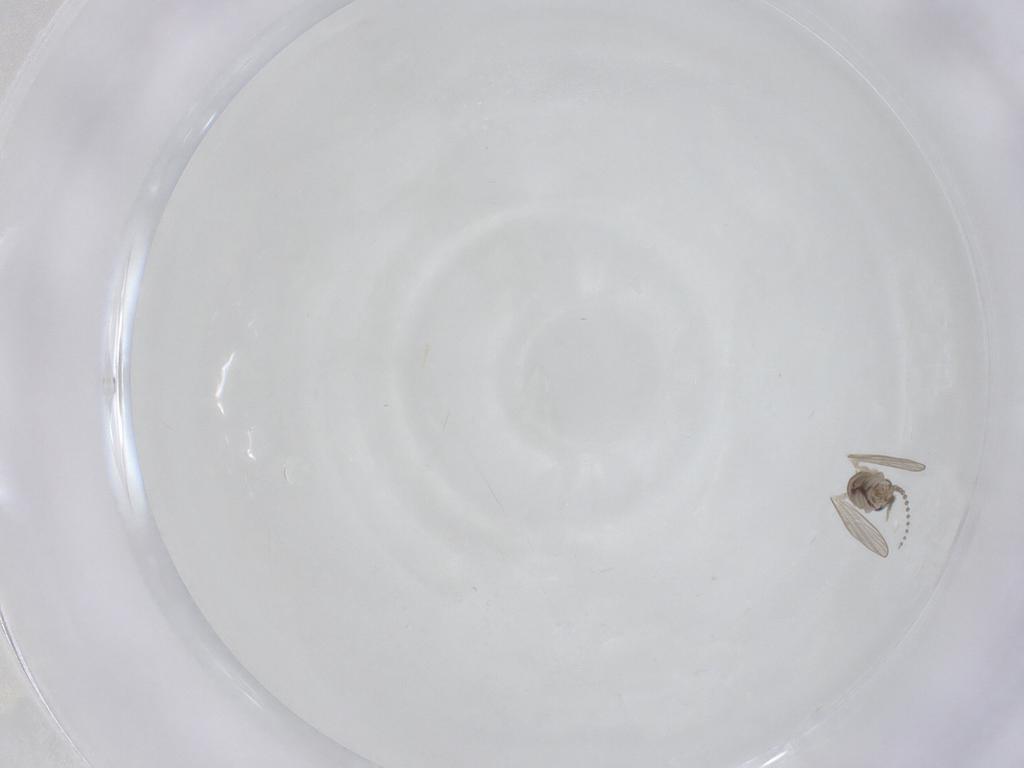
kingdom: Animalia
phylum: Arthropoda
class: Insecta
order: Diptera
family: Psychodidae
